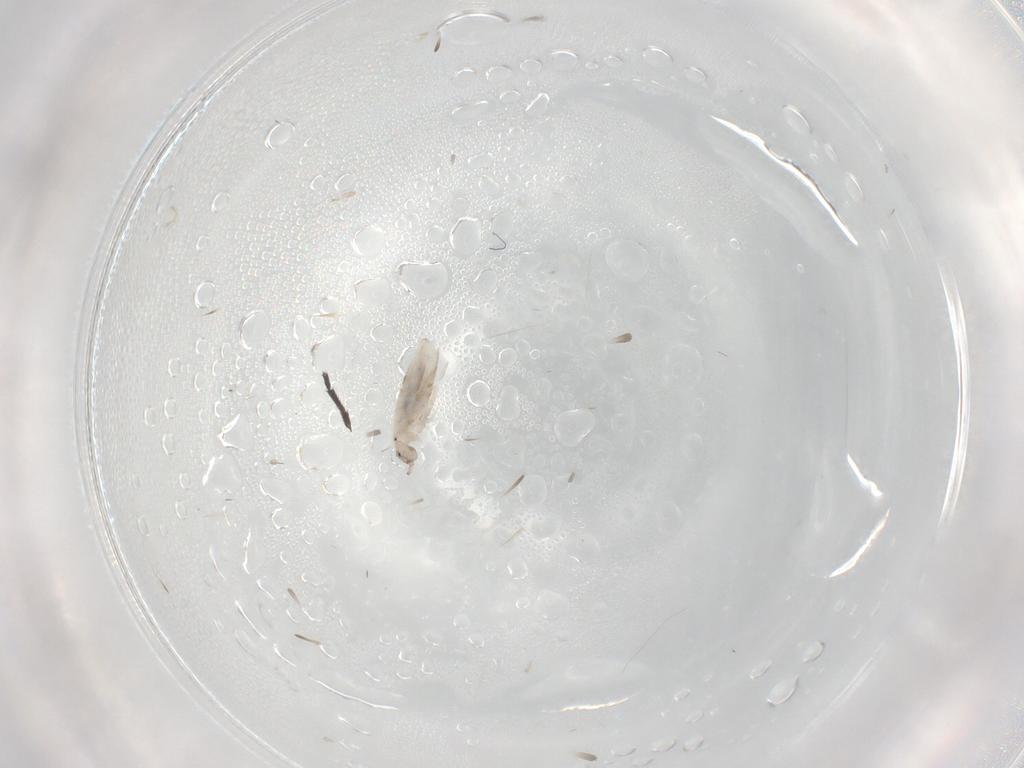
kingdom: Animalia
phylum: Arthropoda
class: Collembola
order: Entomobryomorpha
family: Entomobryidae
